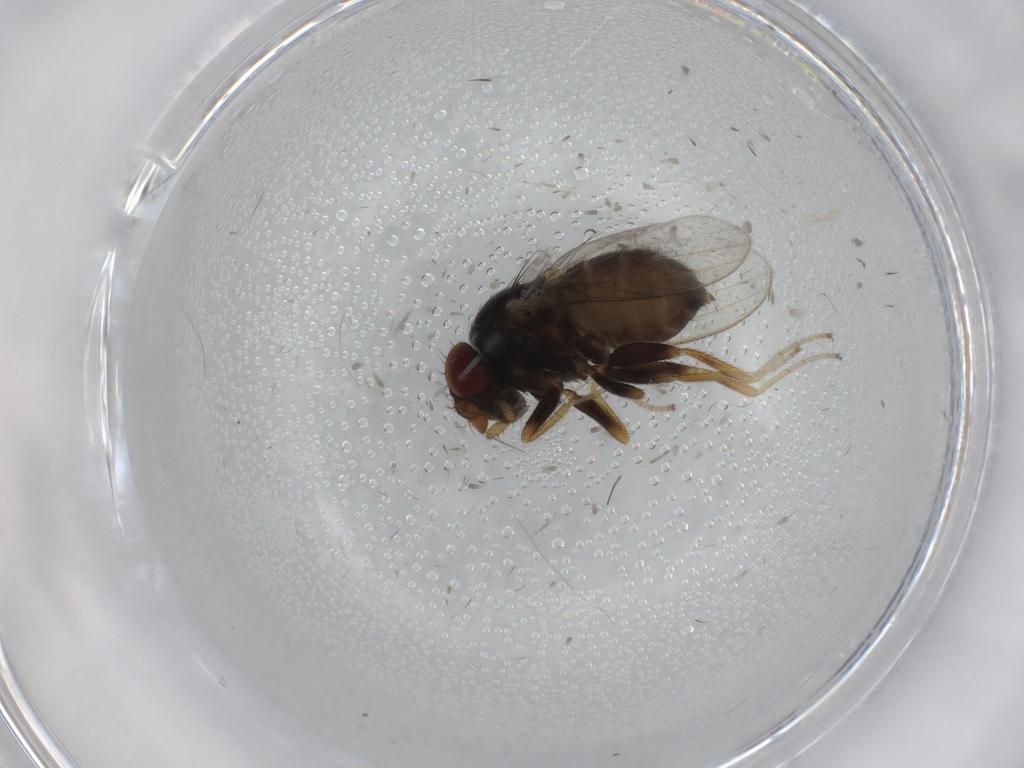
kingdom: Animalia
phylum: Arthropoda
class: Insecta
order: Diptera
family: Milichiidae
